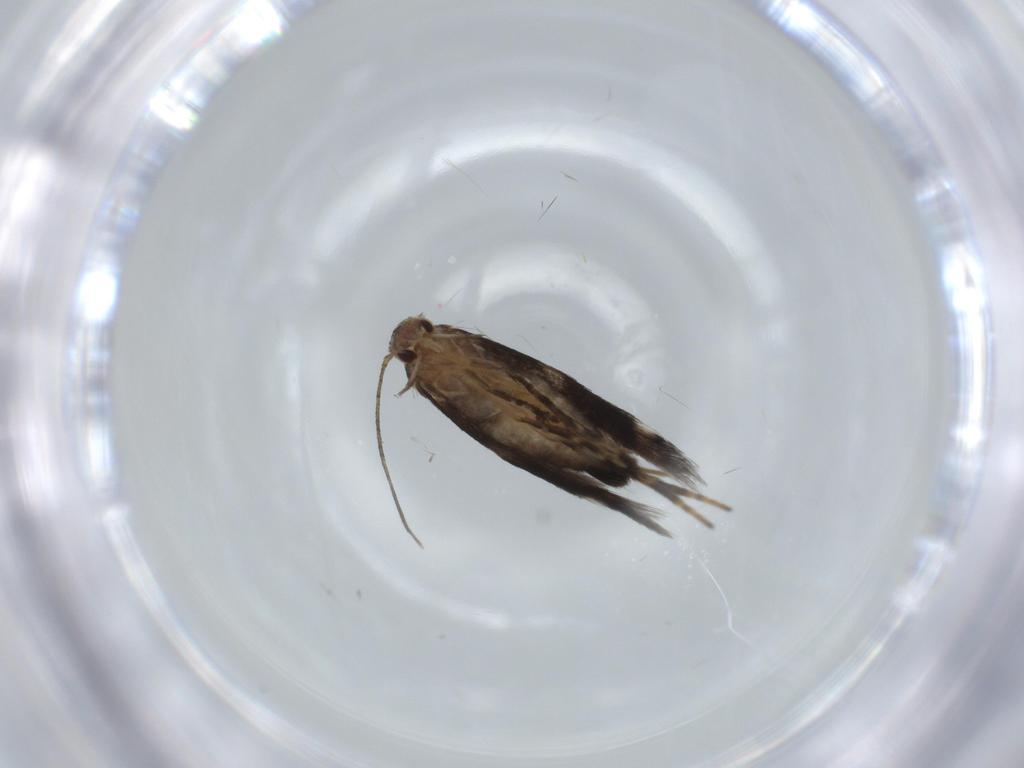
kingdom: Animalia
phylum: Arthropoda
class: Insecta
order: Lepidoptera
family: Cosmopterigidae
